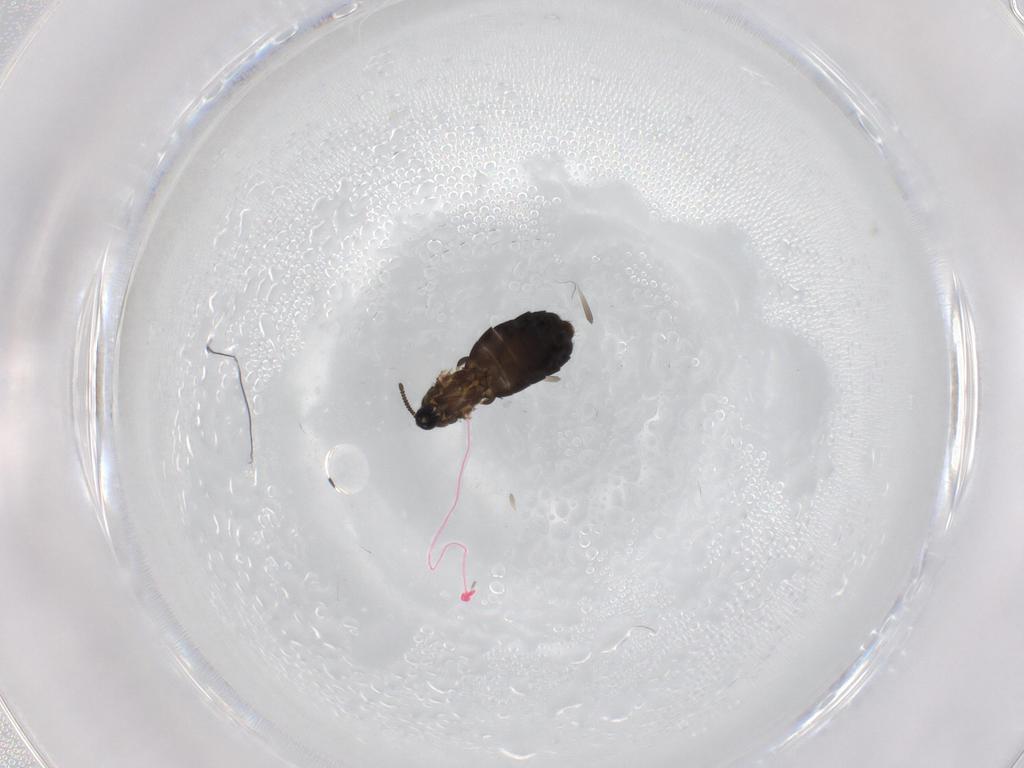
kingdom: Animalia
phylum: Arthropoda
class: Insecta
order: Diptera
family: Scatopsidae
